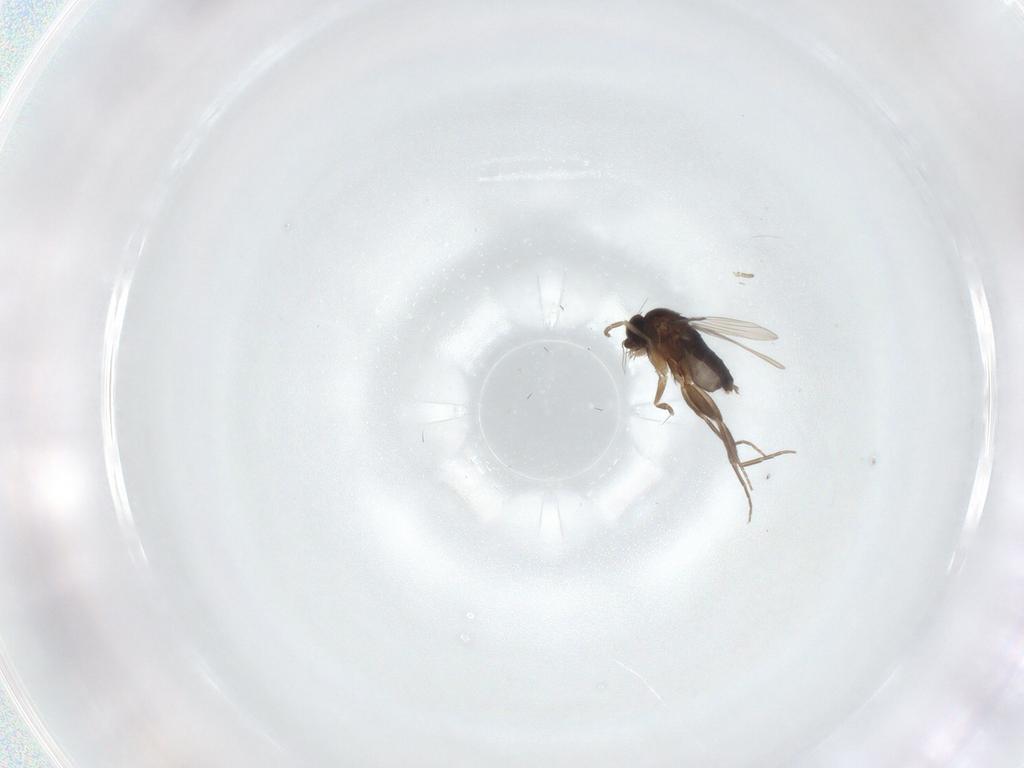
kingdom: Animalia
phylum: Arthropoda
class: Insecta
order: Diptera
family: Phoridae
